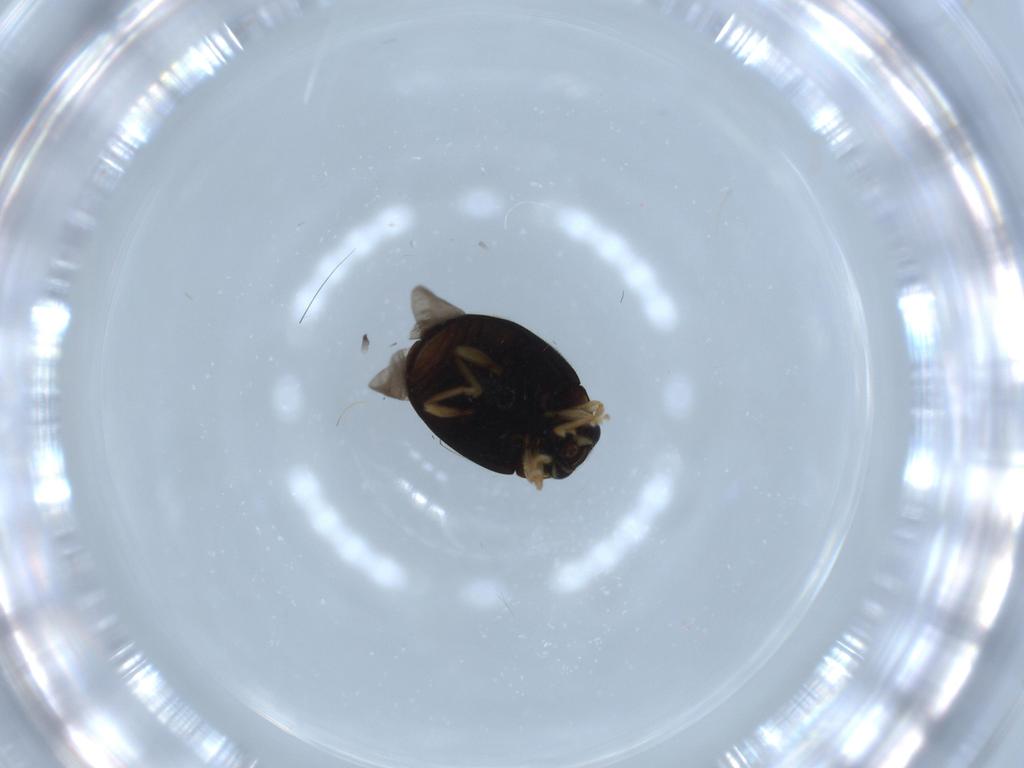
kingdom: Animalia
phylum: Arthropoda
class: Insecta
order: Coleoptera
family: Coccinellidae
